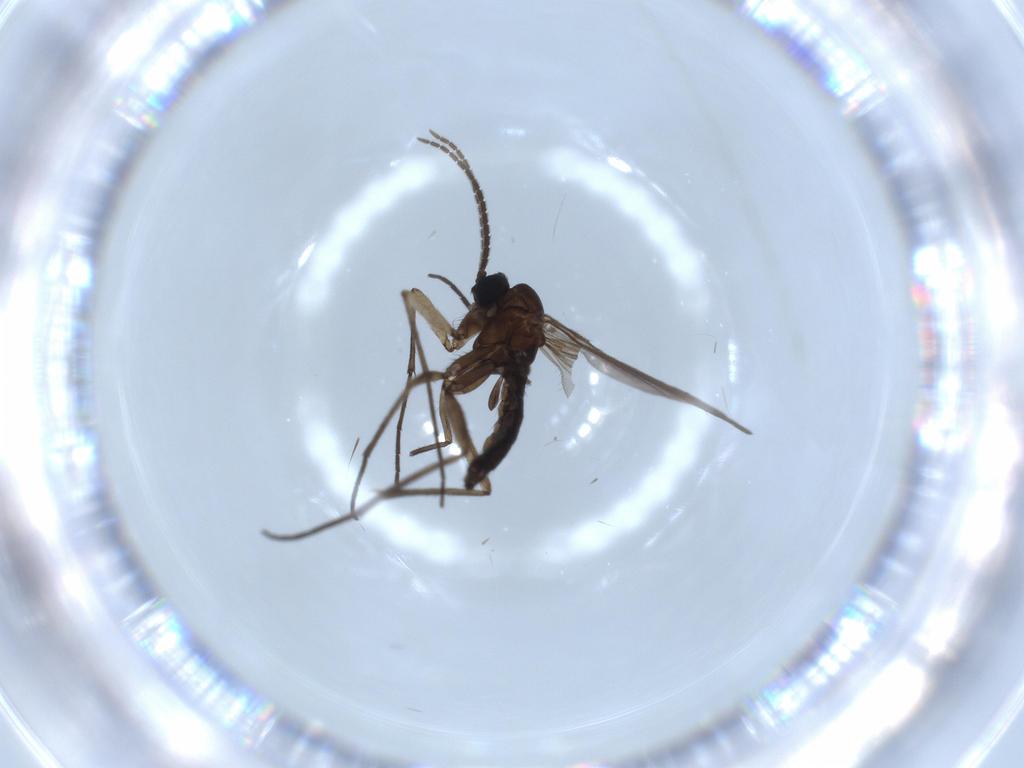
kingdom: Animalia
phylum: Arthropoda
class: Insecta
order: Diptera
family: Sciaridae
